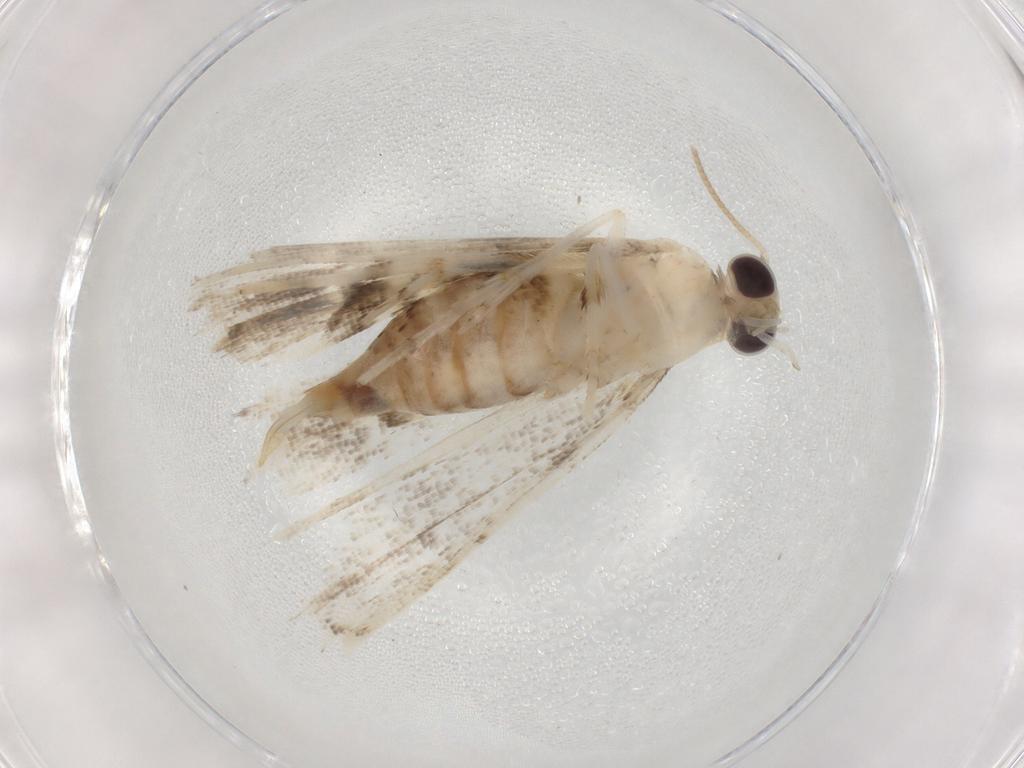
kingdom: Animalia
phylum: Arthropoda
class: Insecta
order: Lepidoptera
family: Crambidae
